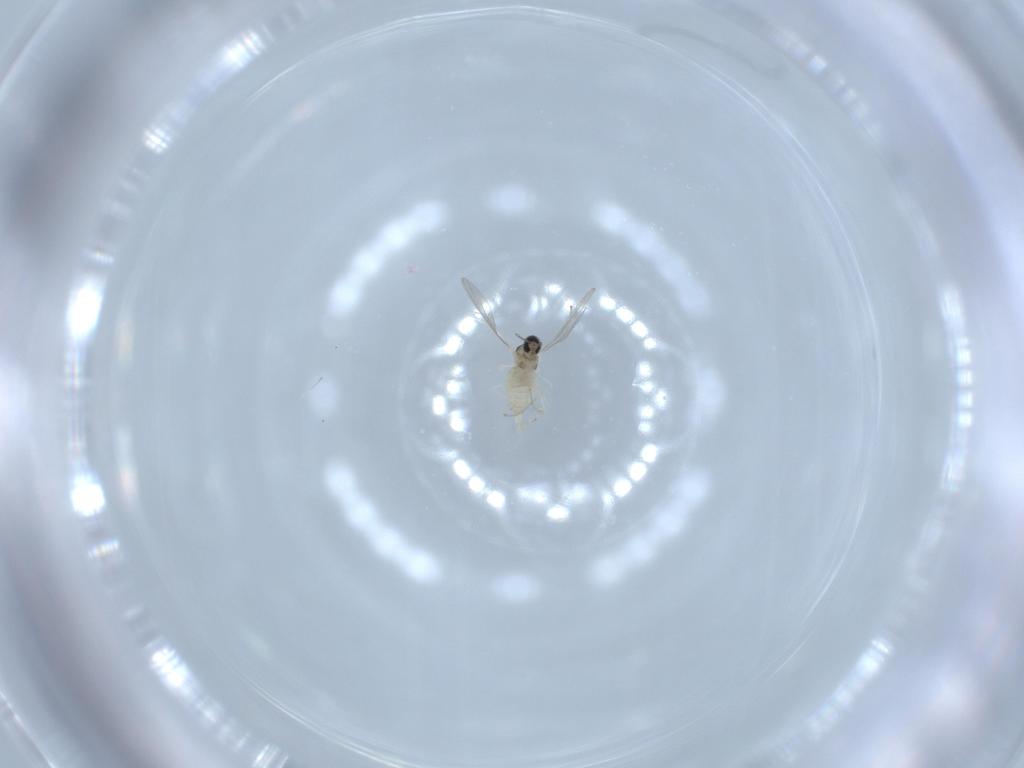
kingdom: Animalia
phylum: Arthropoda
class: Insecta
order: Diptera
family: Cecidomyiidae
